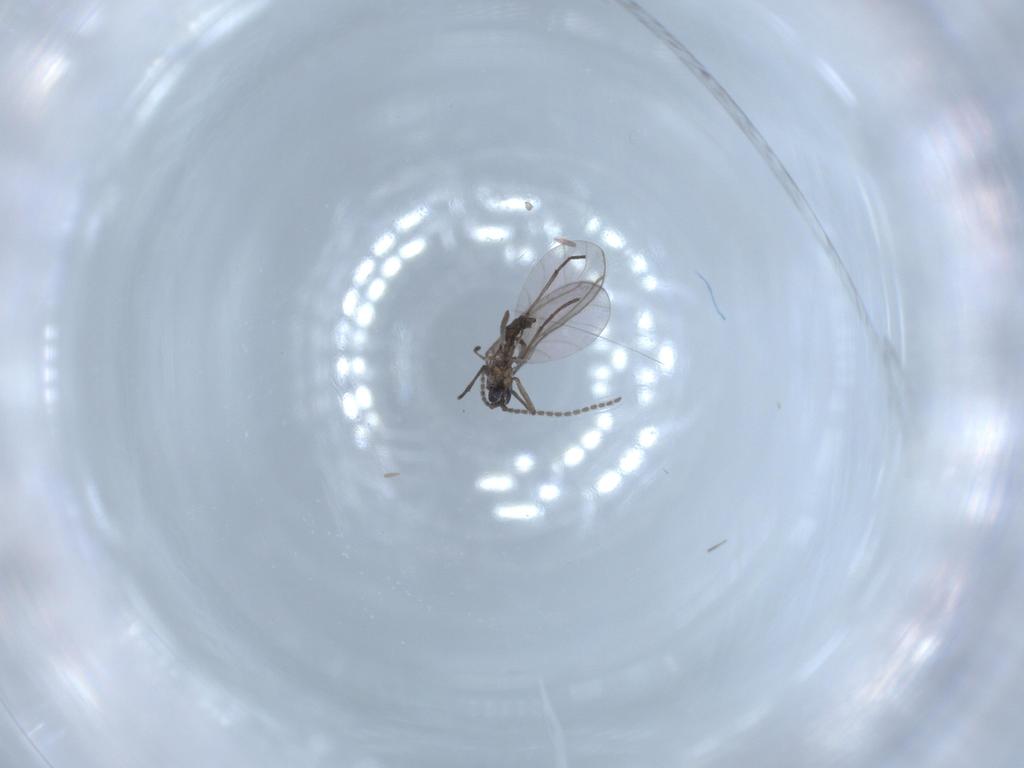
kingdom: Animalia
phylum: Arthropoda
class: Insecta
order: Diptera
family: Sciaridae
